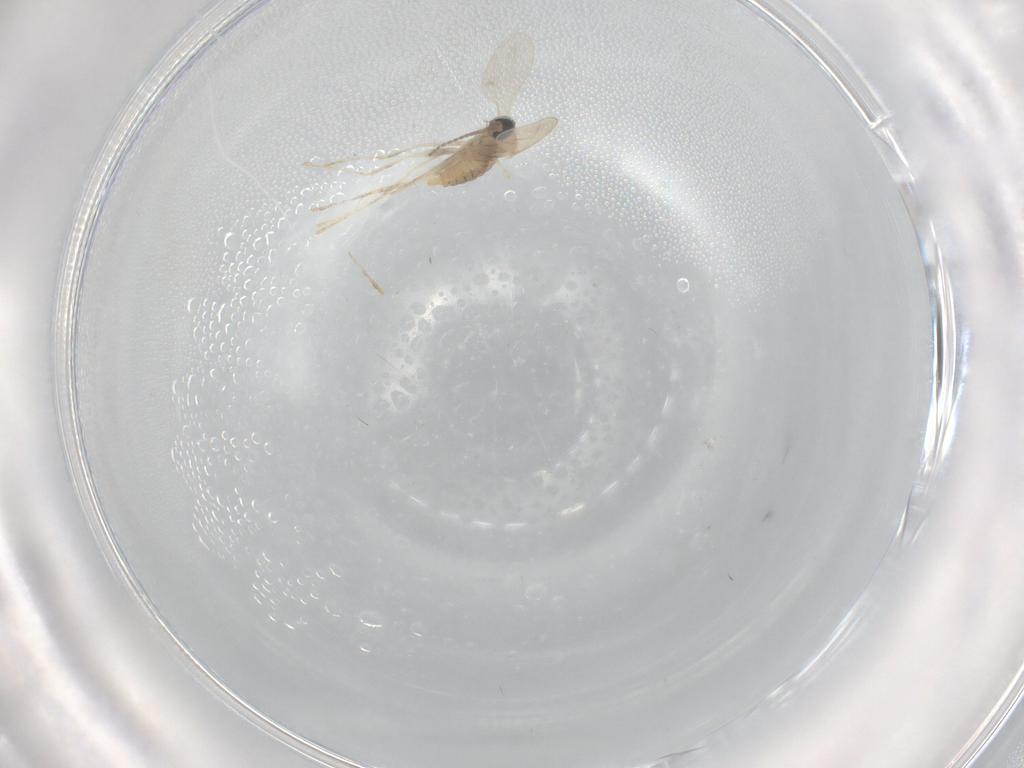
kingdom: Animalia
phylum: Arthropoda
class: Insecta
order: Diptera
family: Cecidomyiidae
